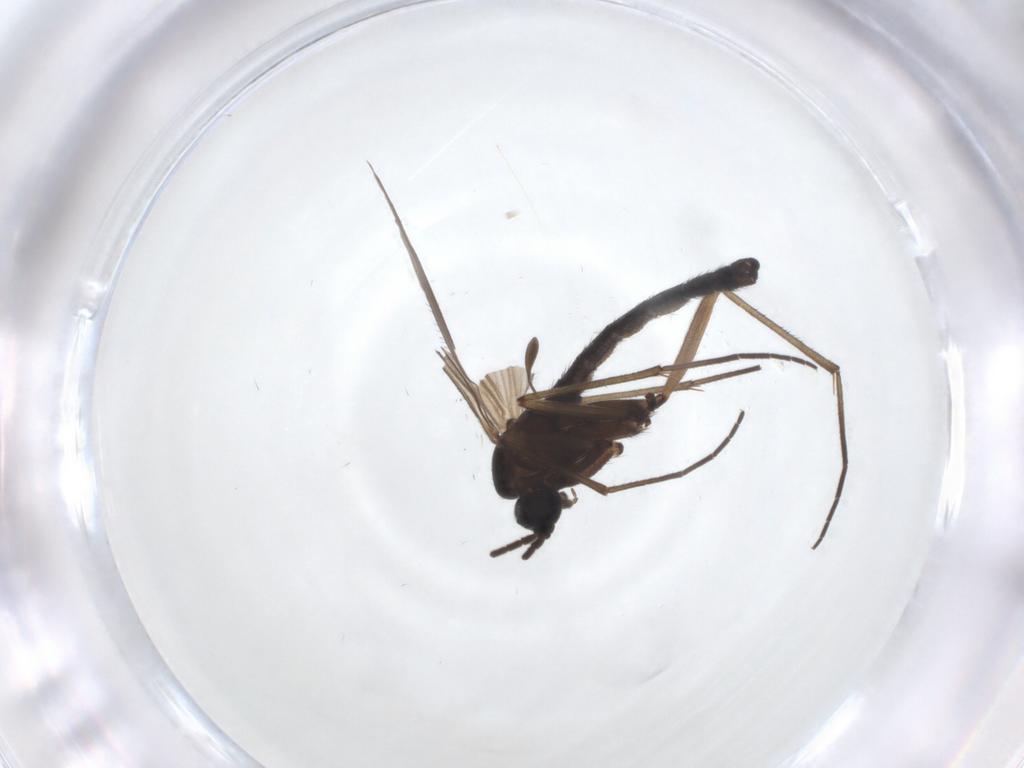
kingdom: Animalia
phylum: Arthropoda
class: Insecta
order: Diptera
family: Sciaridae
